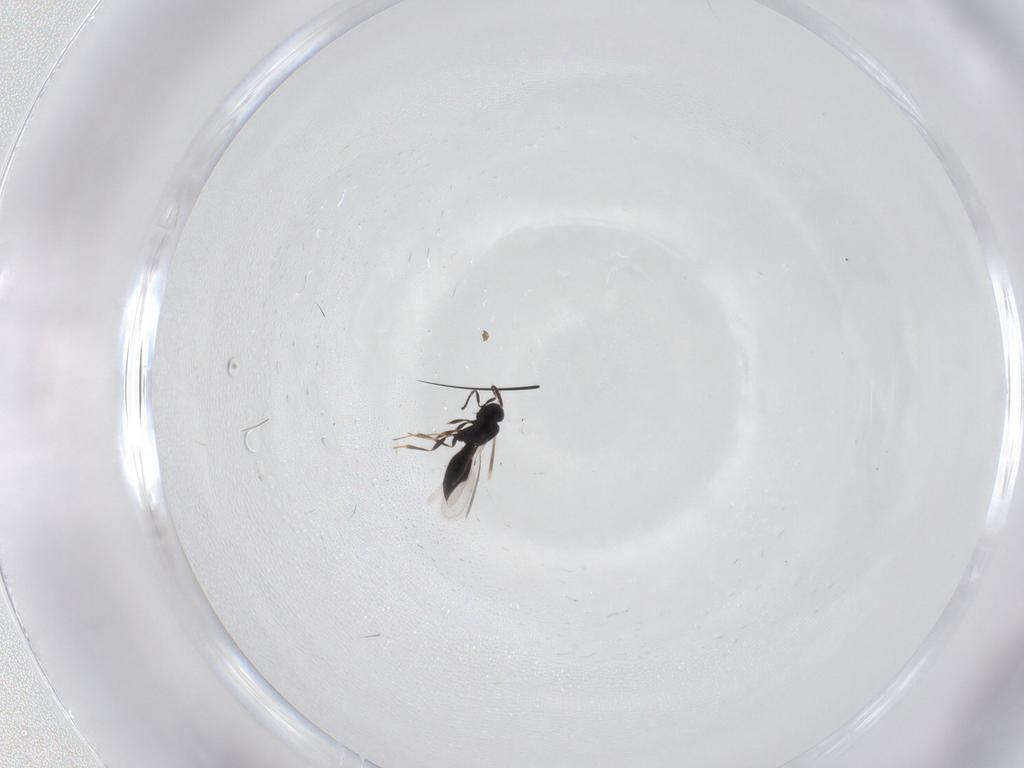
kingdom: Animalia
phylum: Arthropoda
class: Insecta
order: Hymenoptera
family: Scelionidae
